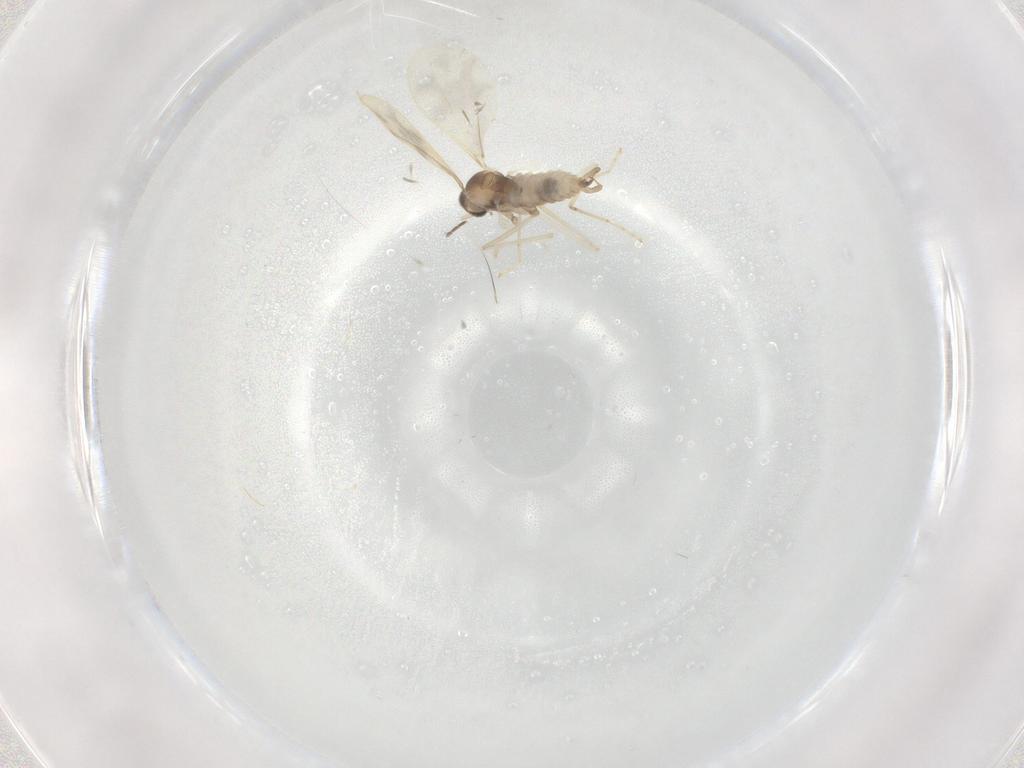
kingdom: Animalia
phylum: Arthropoda
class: Insecta
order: Diptera
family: Cecidomyiidae
